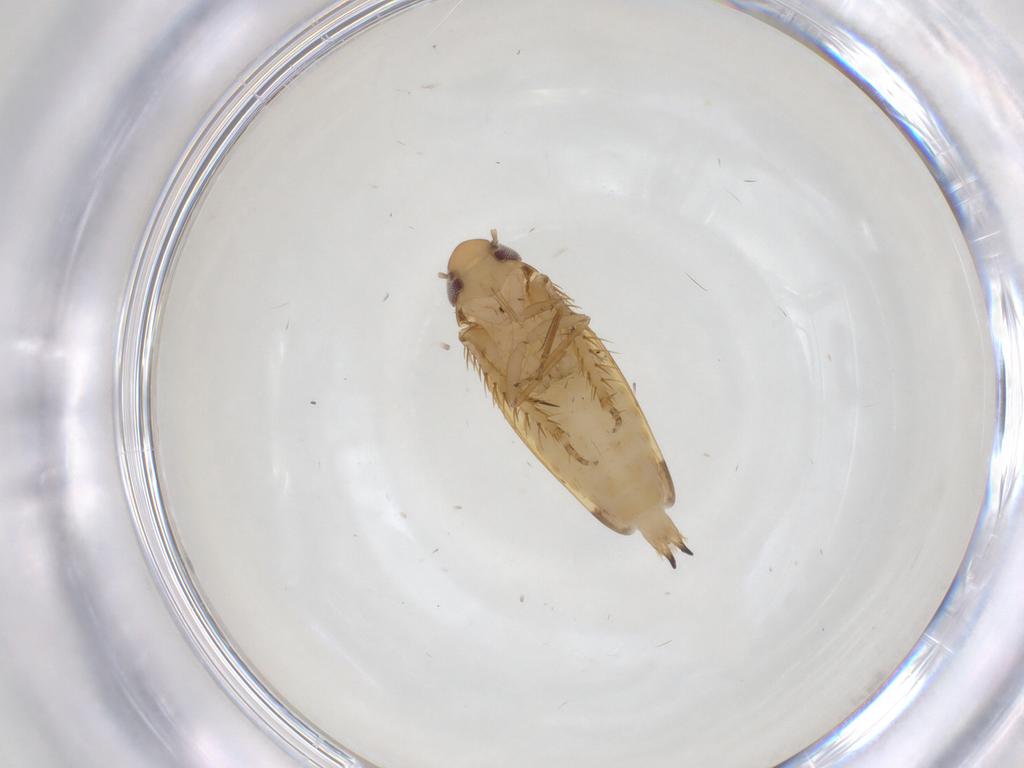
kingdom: Animalia
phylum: Arthropoda
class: Insecta
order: Hemiptera
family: Cicadellidae
